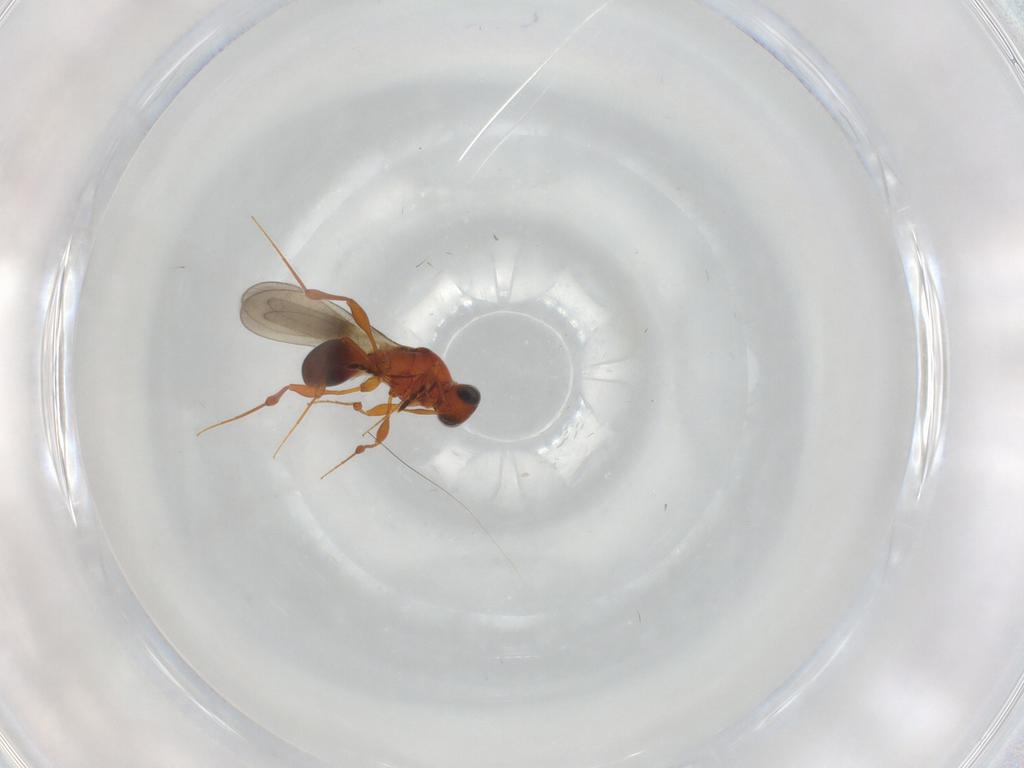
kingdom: Animalia
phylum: Arthropoda
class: Insecta
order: Hymenoptera
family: Platygastridae
